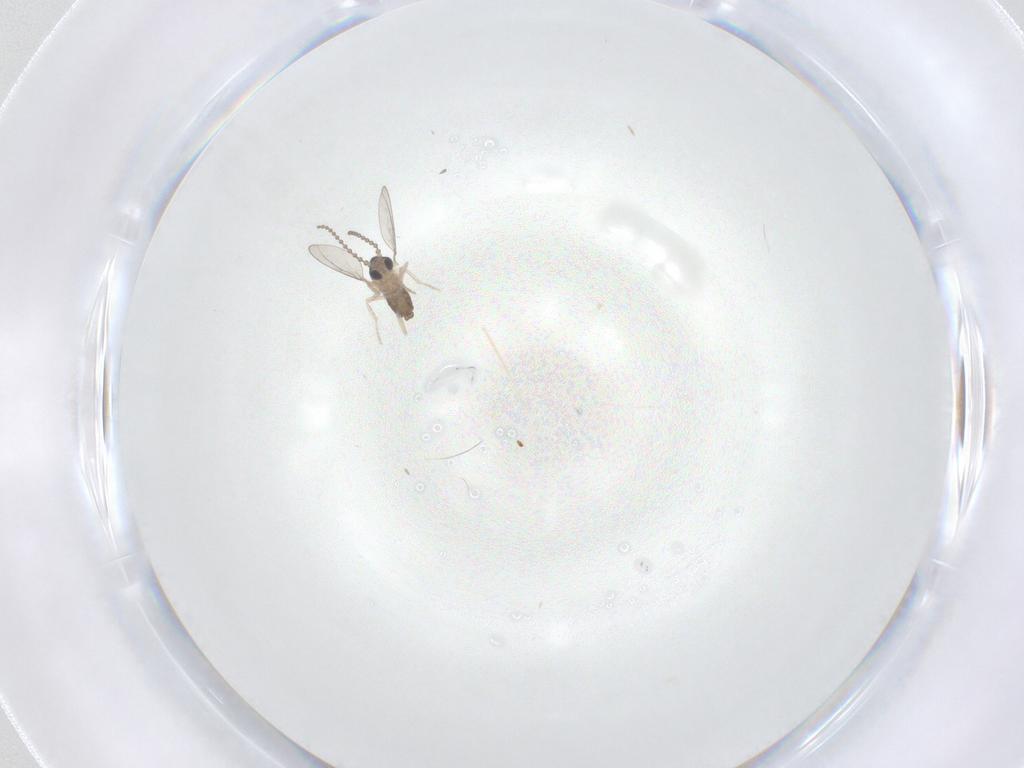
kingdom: Animalia
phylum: Arthropoda
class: Insecta
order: Diptera
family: Cecidomyiidae
